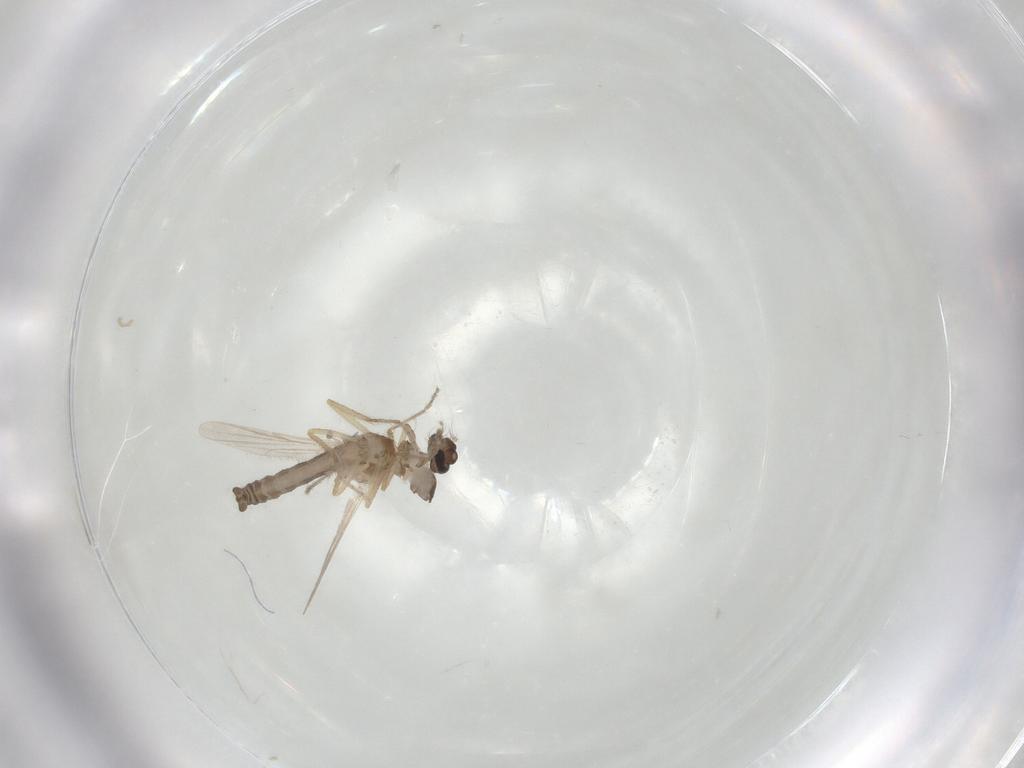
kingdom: Animalia
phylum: Arthropoda
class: Insecta
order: Diptera
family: Ceratopogonidae
